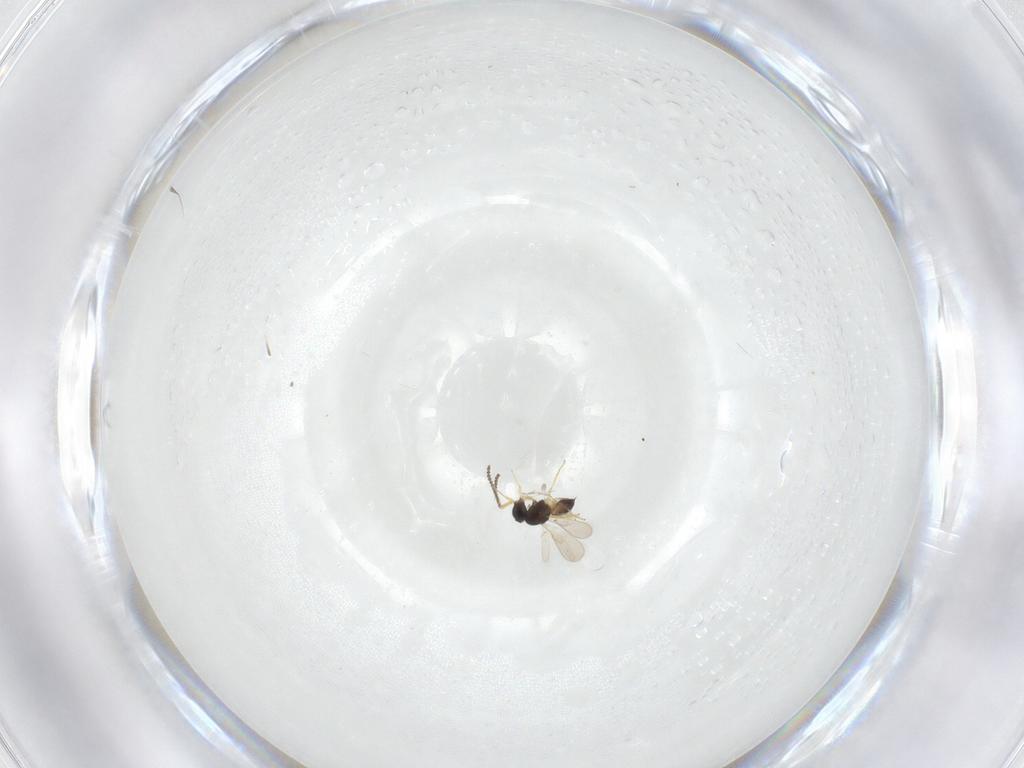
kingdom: Animalia
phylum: Arthropoda
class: Insecta
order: Hymenoptera
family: Scelionidae
